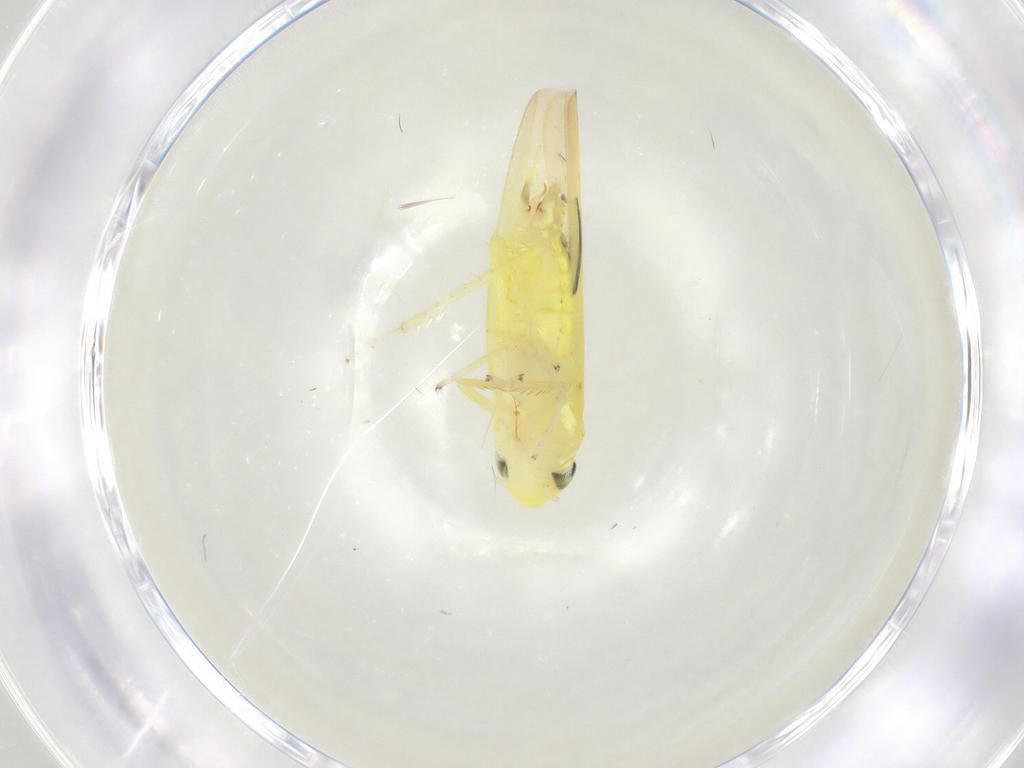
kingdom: Animalia
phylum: Arthropoda
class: Insecta
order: Hemiptera
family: Cicadellidae
